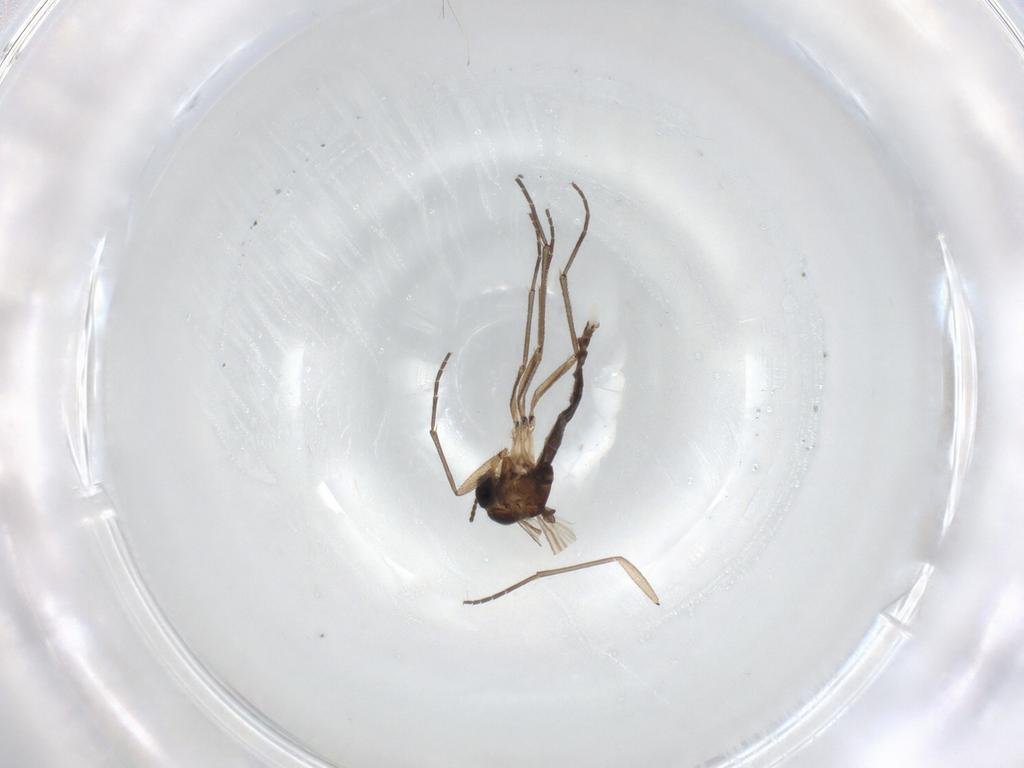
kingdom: Animalia
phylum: Arthropoda
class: Insecta
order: Diptera
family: Sciaridae
